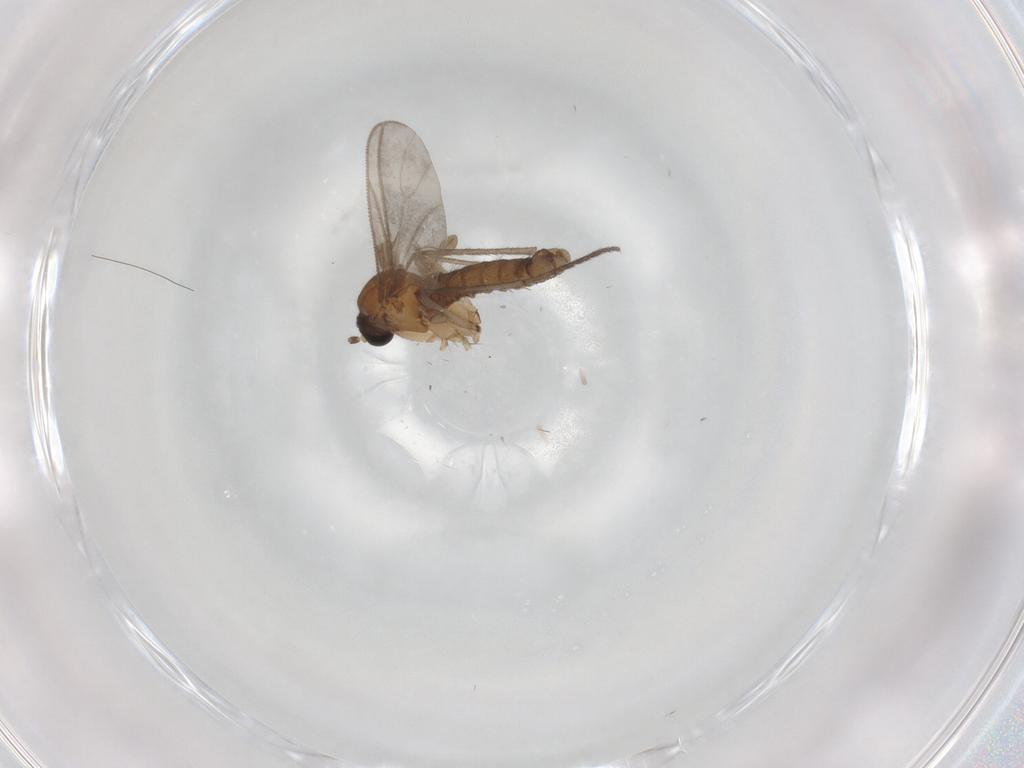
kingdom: Animalia
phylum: Arthropoda
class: Insecta
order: Diptera
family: Sciaridae
